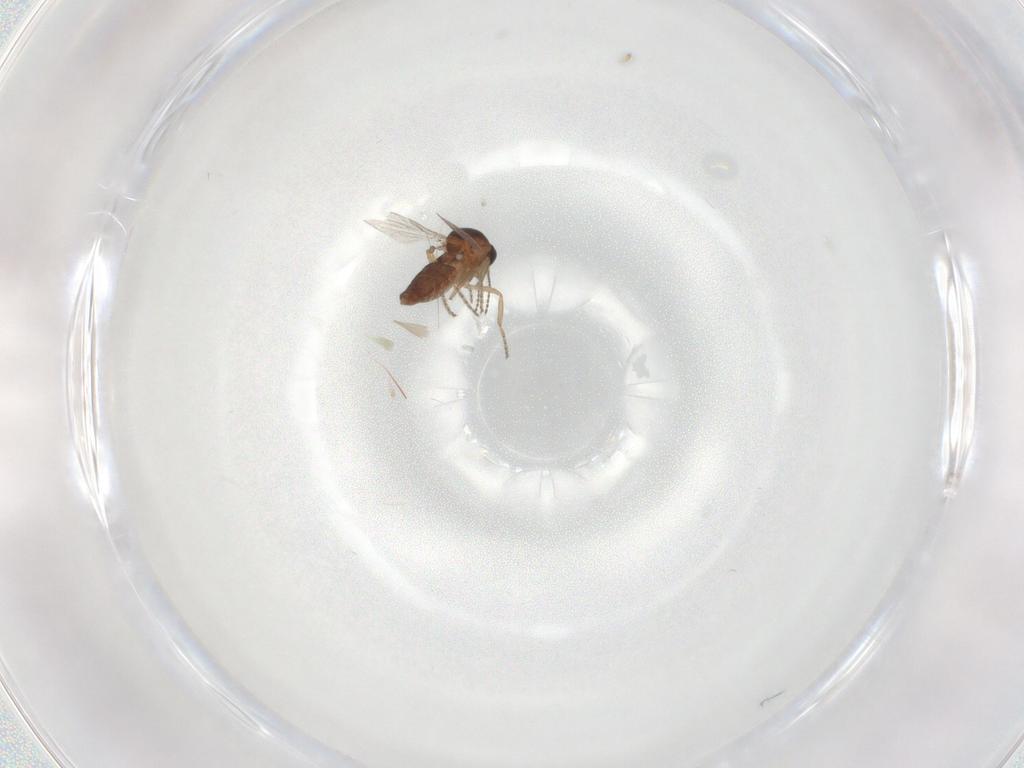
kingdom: Animalia
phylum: Arthropoda
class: Insecta
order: Diptera
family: Ceratopogonidae
